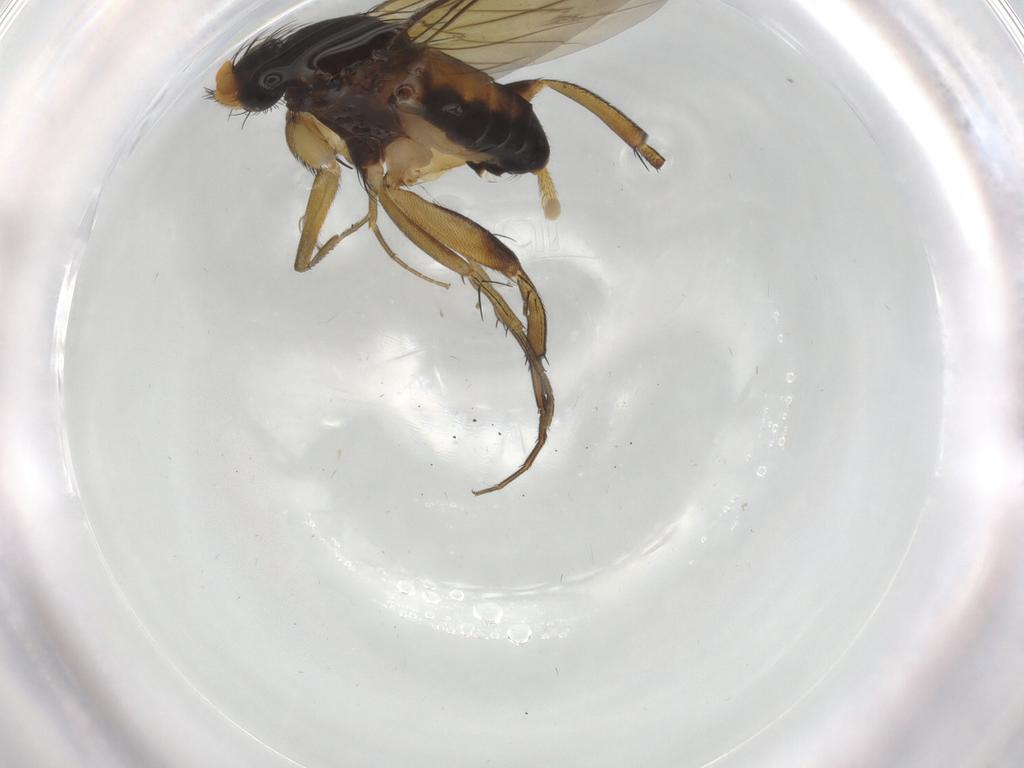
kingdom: Animalia
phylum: Arthropoda
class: Insecta
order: Diptera
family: Phoridae
